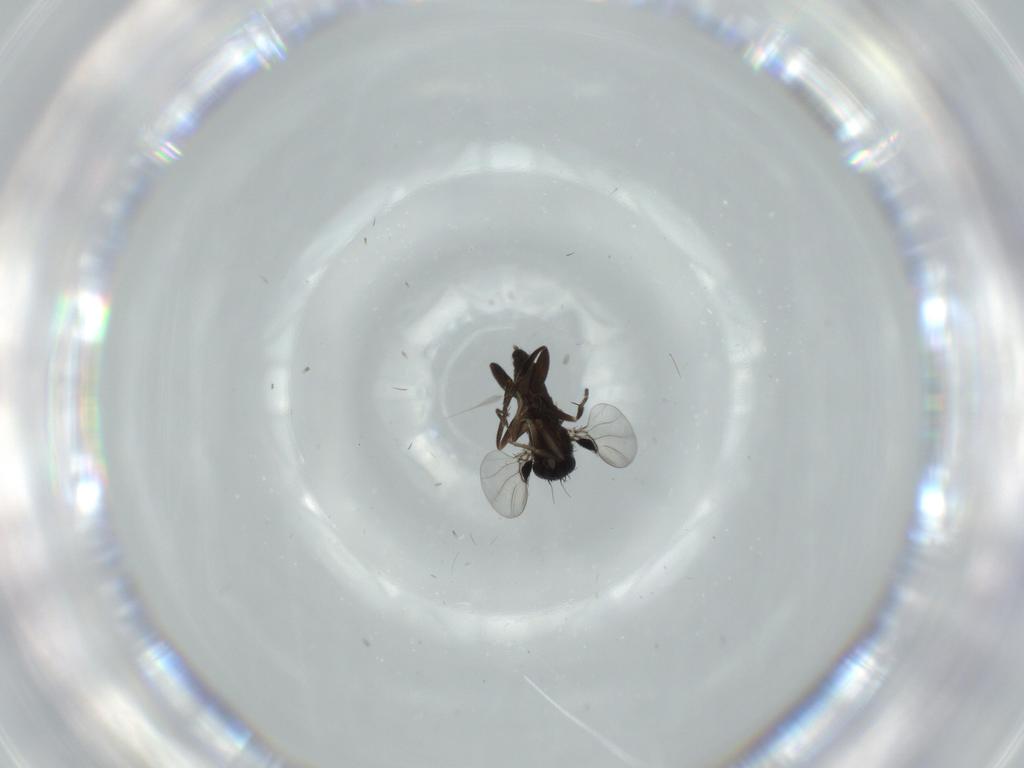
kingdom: Animalia
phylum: Arthropoda
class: Insecta
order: Diptera
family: Phoridae
